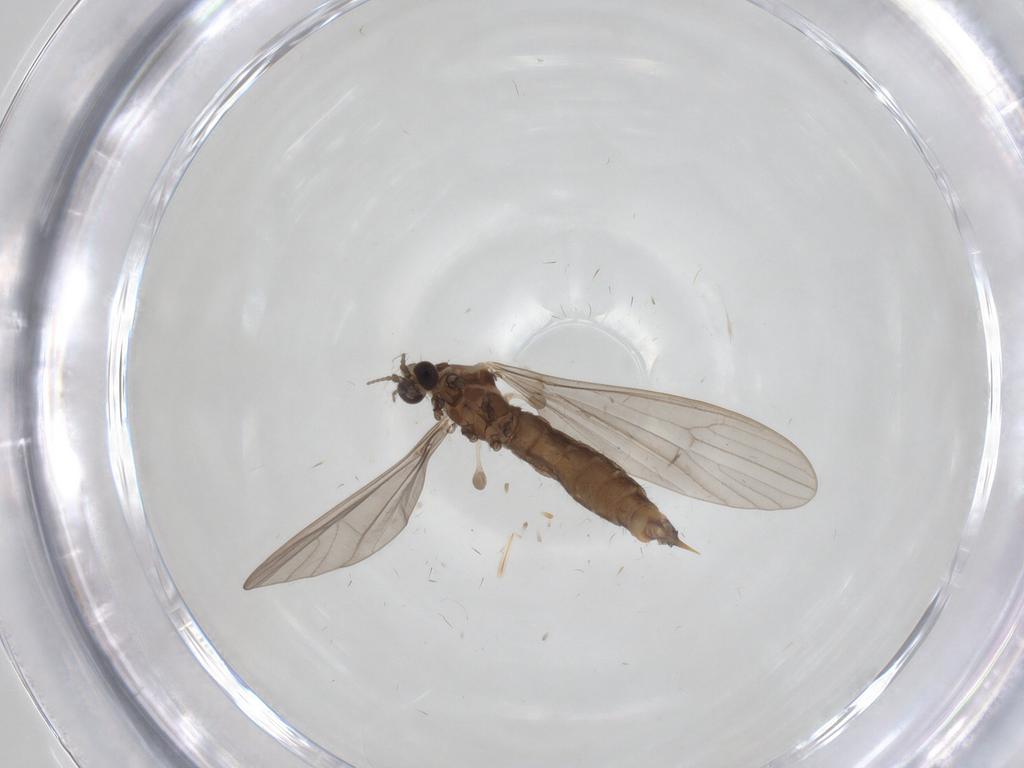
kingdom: Animalia
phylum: Arthropoda
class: Insecta
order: Diptera
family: Limoniidae
